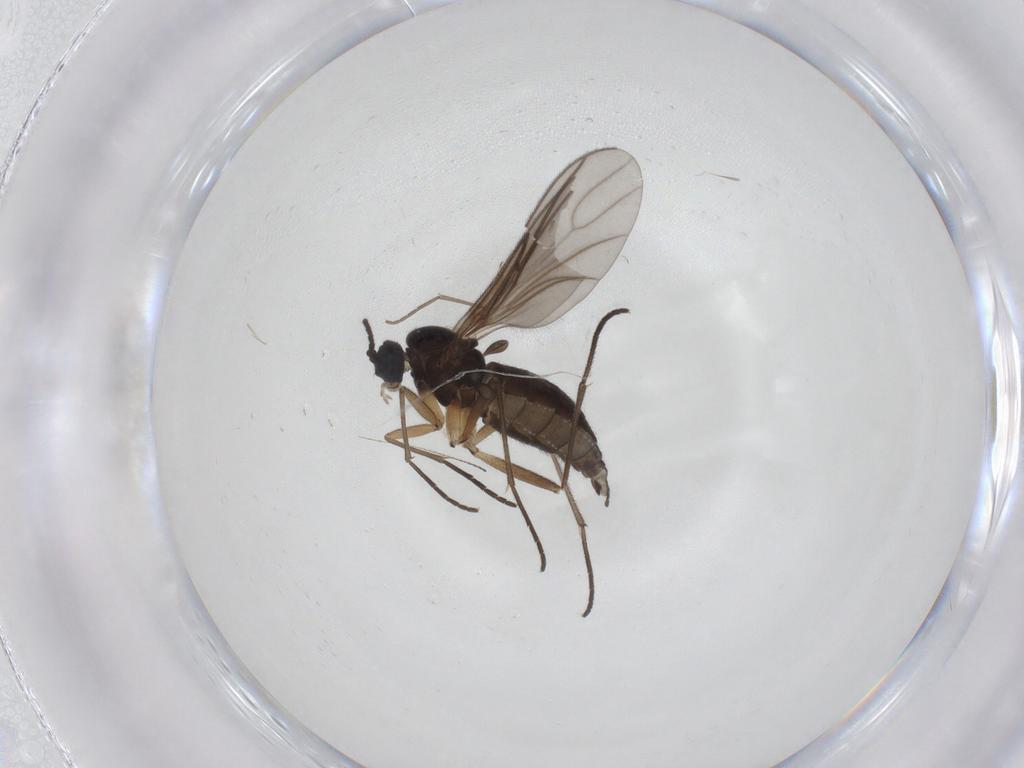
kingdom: Animalia
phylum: Arthropoda
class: Insecta
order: Diptera
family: Sciaridae
